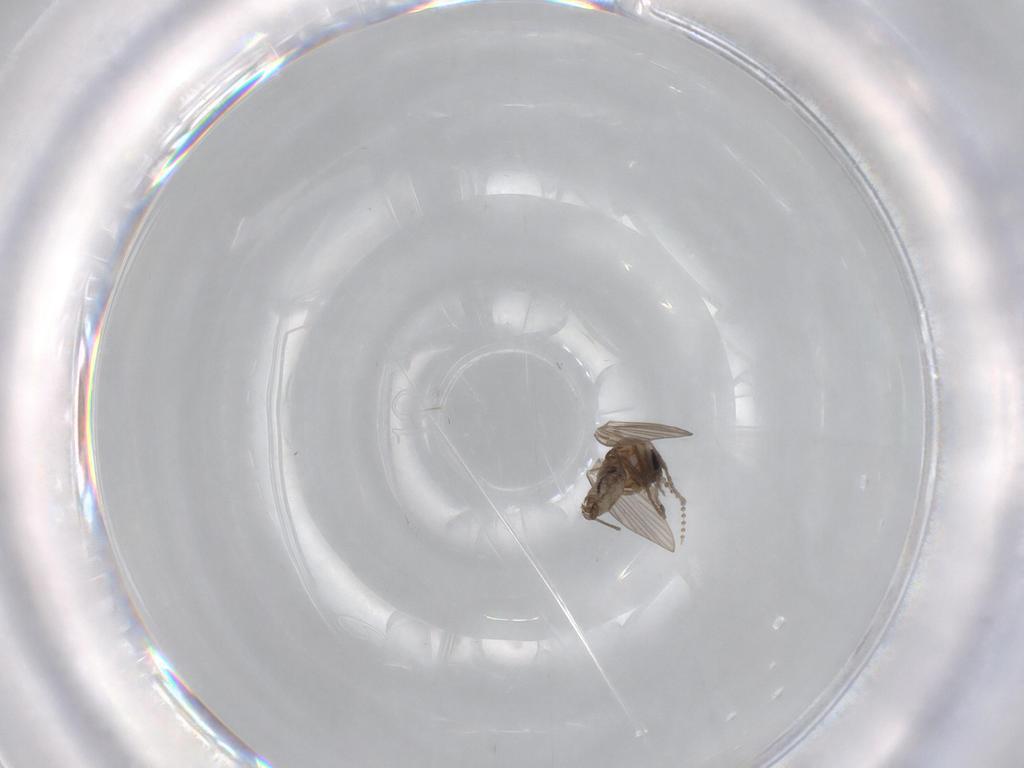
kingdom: Animalia
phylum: Arthropoda
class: Insecta
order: Diptera
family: Psychodidae
